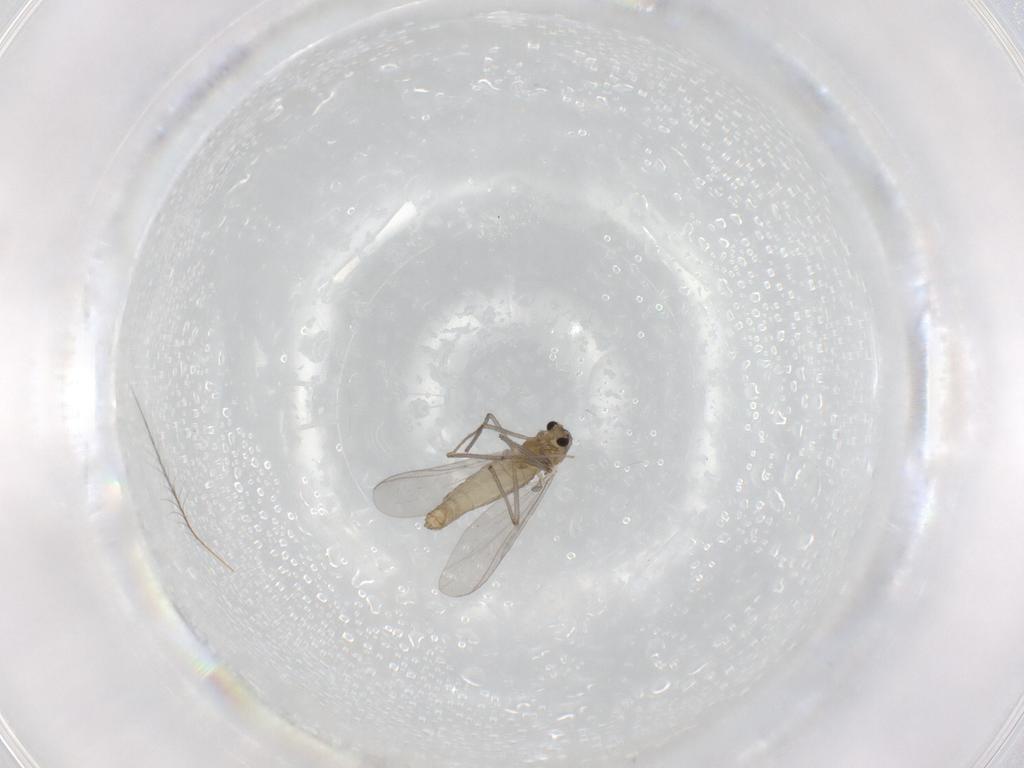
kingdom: Animalia
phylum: Arthropoda
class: Insecta
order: Diptera
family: Chironomidae
